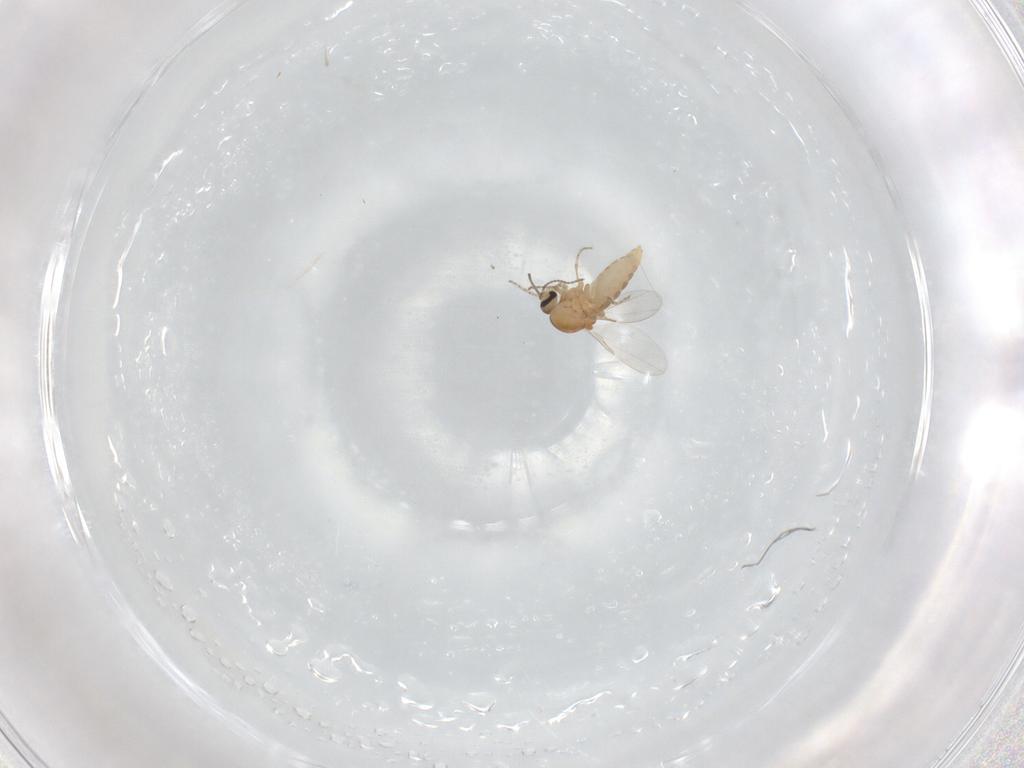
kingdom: Animalia
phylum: Arthropoda
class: Insecta
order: Diptera
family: Ceratopogonidae
